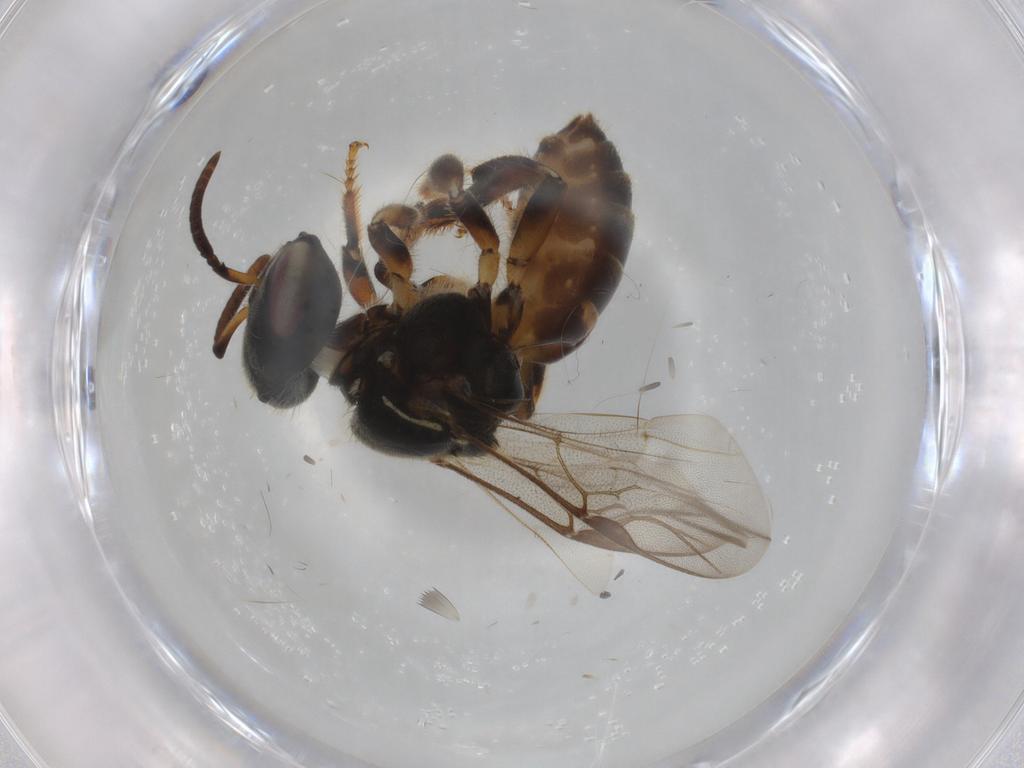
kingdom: Animalia
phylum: Arthropoda
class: Insecta
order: Hymenoptera
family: Apidae
